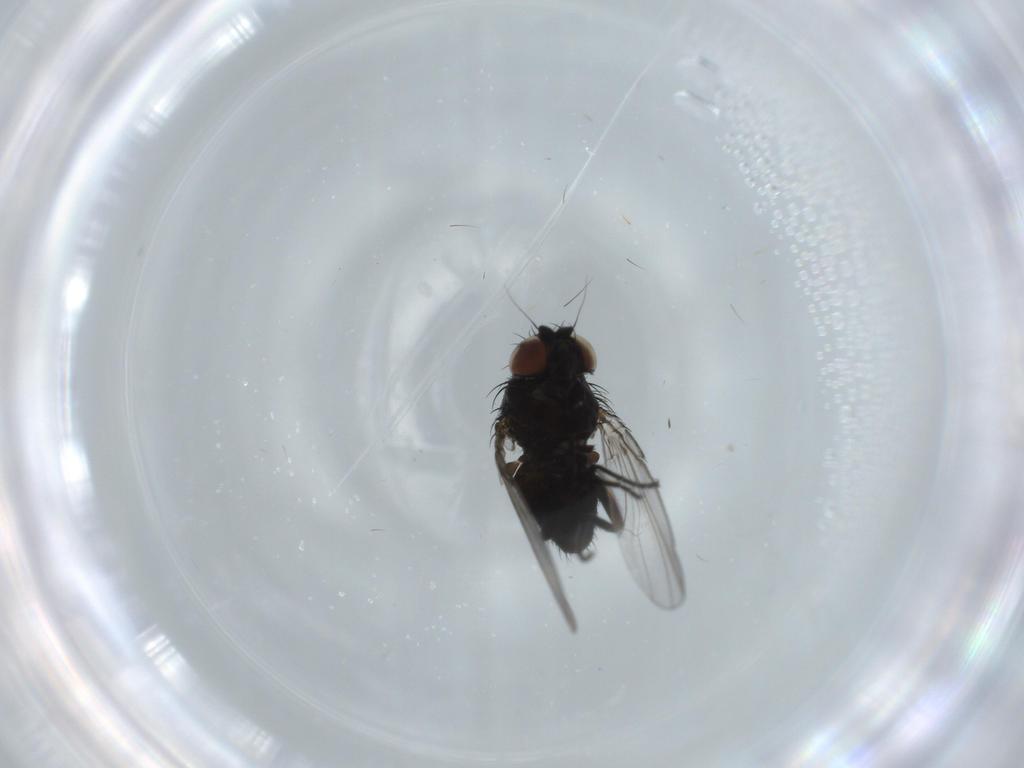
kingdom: Animalia
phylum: Arthropoda
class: Insecta
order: Diptera
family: Milichiidae
